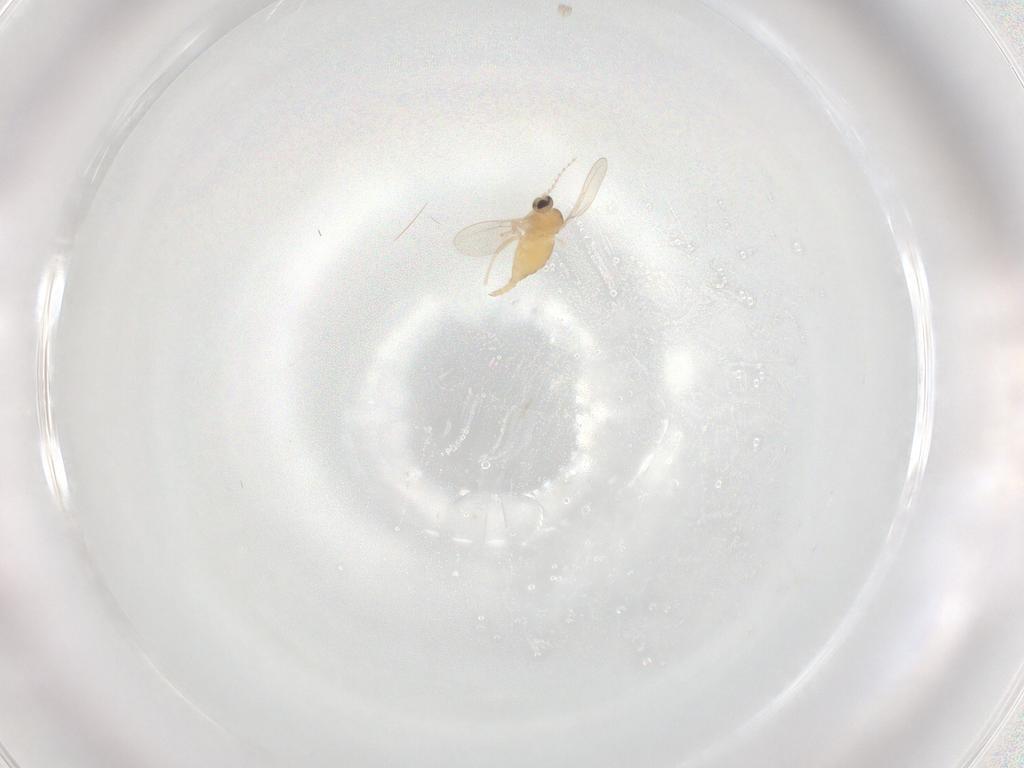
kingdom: Animalia
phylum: Arthropoda
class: Insecta
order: Diptera
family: Cecidomyiidae
